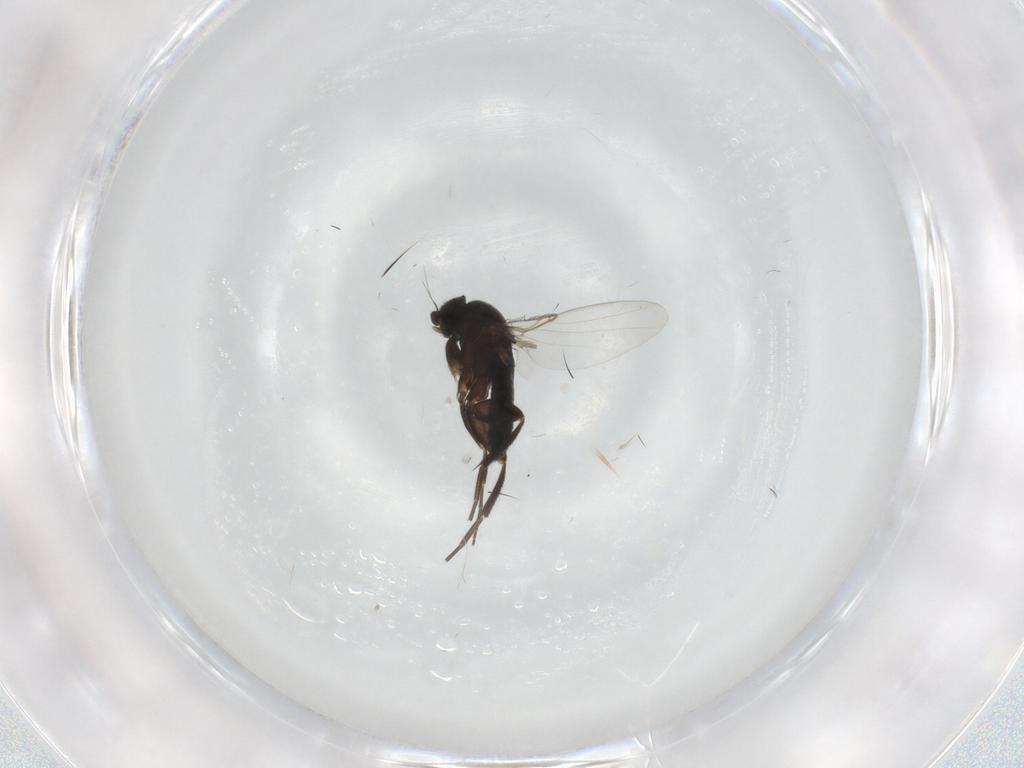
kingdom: Animalia
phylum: Arthropoda
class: Insecta
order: Diptera
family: Phoridae
